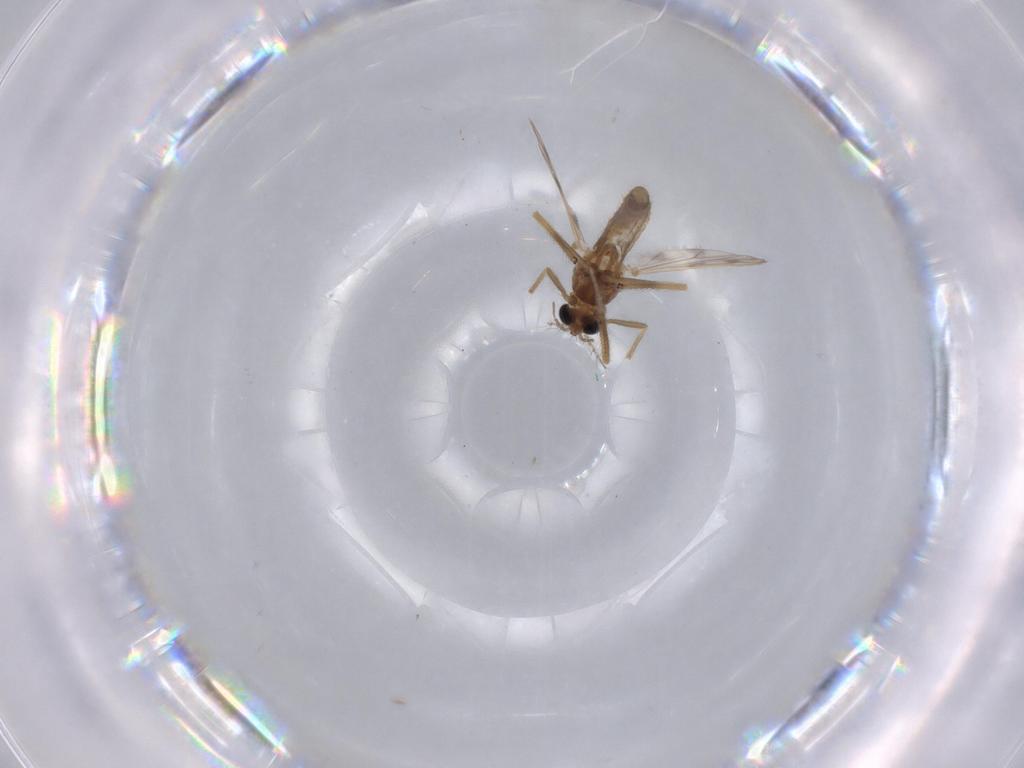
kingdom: Animalia
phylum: Arthropoda
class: Insecta
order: Diptera
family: Chironomidae
